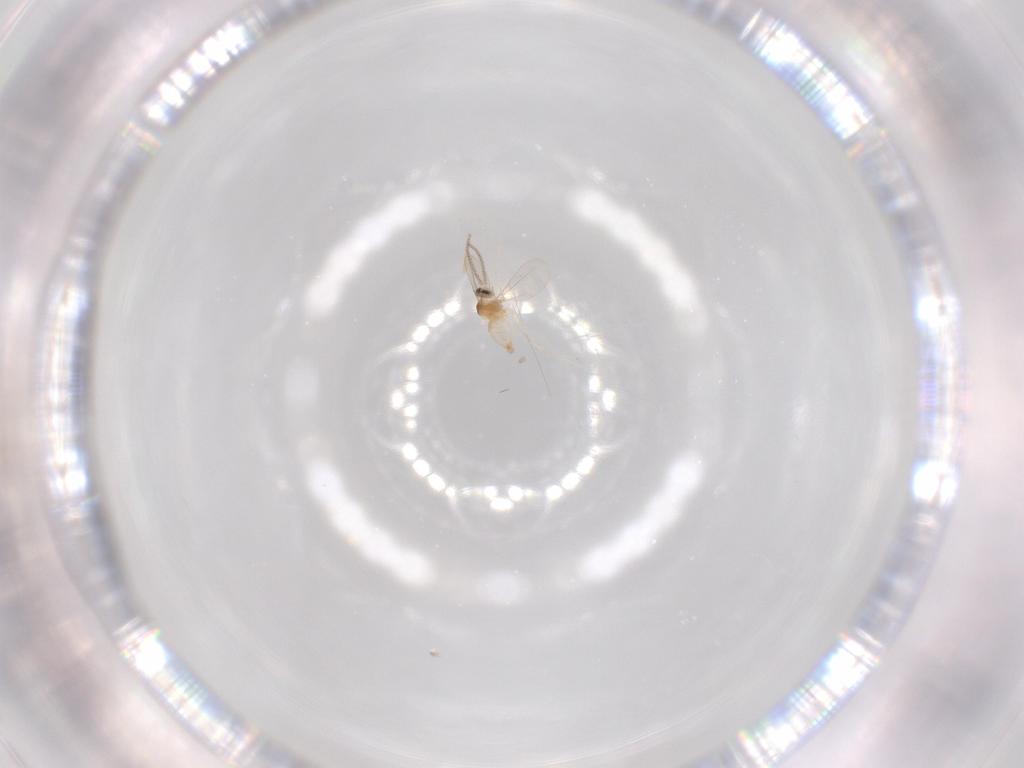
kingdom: Animalia
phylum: Arthropoda
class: Insecta
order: Diptera
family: Cecidomyiidae
